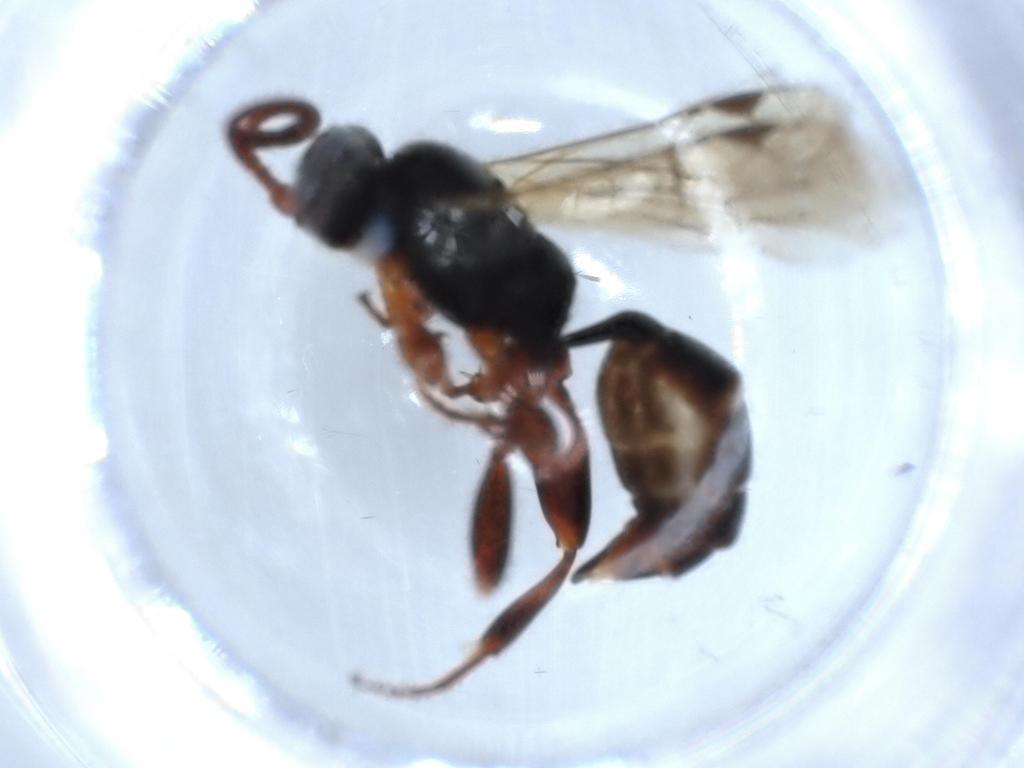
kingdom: Animalia
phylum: Arthropoda
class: Insecta
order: Hymenoptera
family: Ichneumonidae
